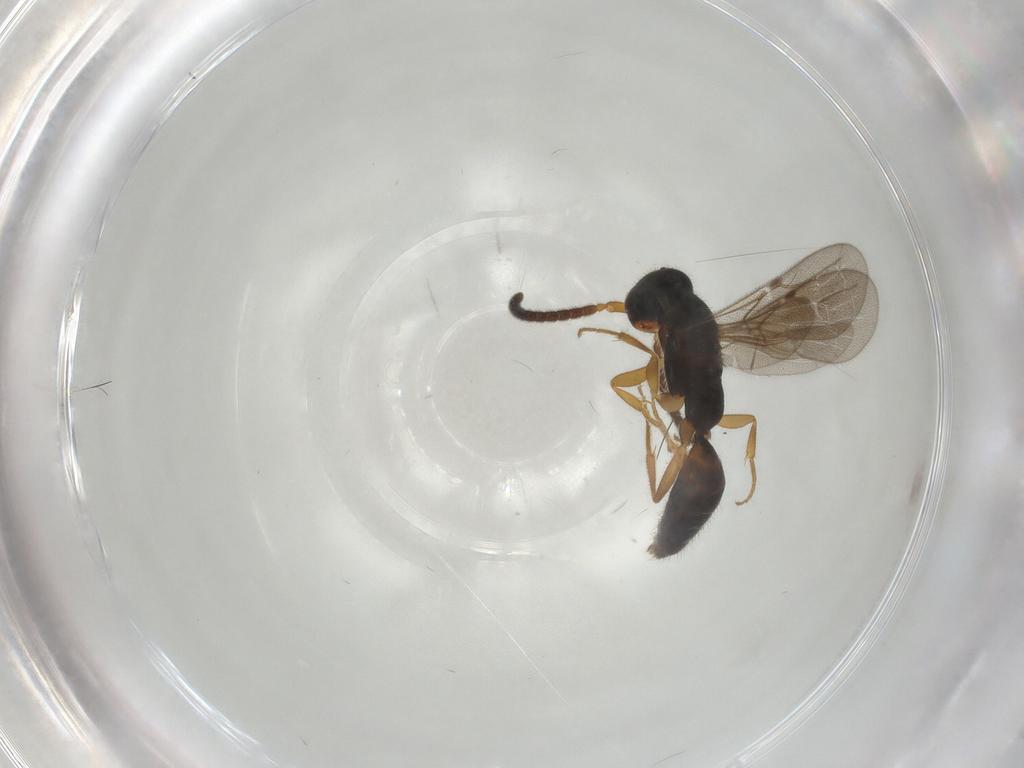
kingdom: Animalia
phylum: Arthropoda
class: Insecta
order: Hymenoptera
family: Bethylidae
